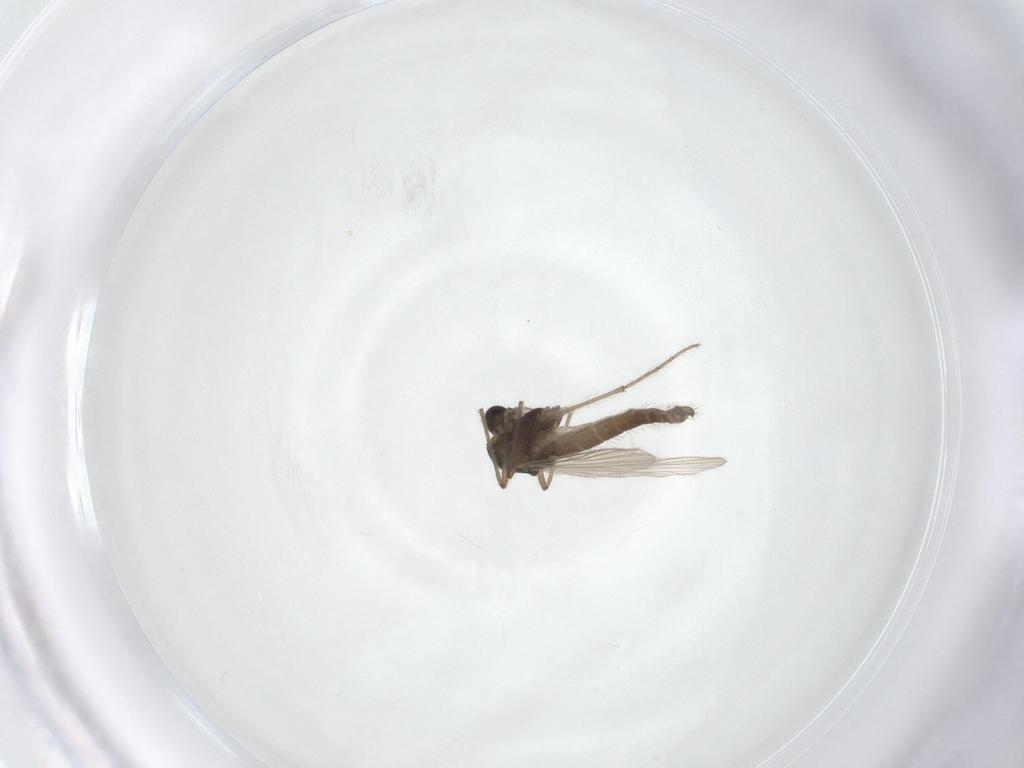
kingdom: Animalia
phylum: Arthropoda
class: Insecta
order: Diptera
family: Chironomidae
